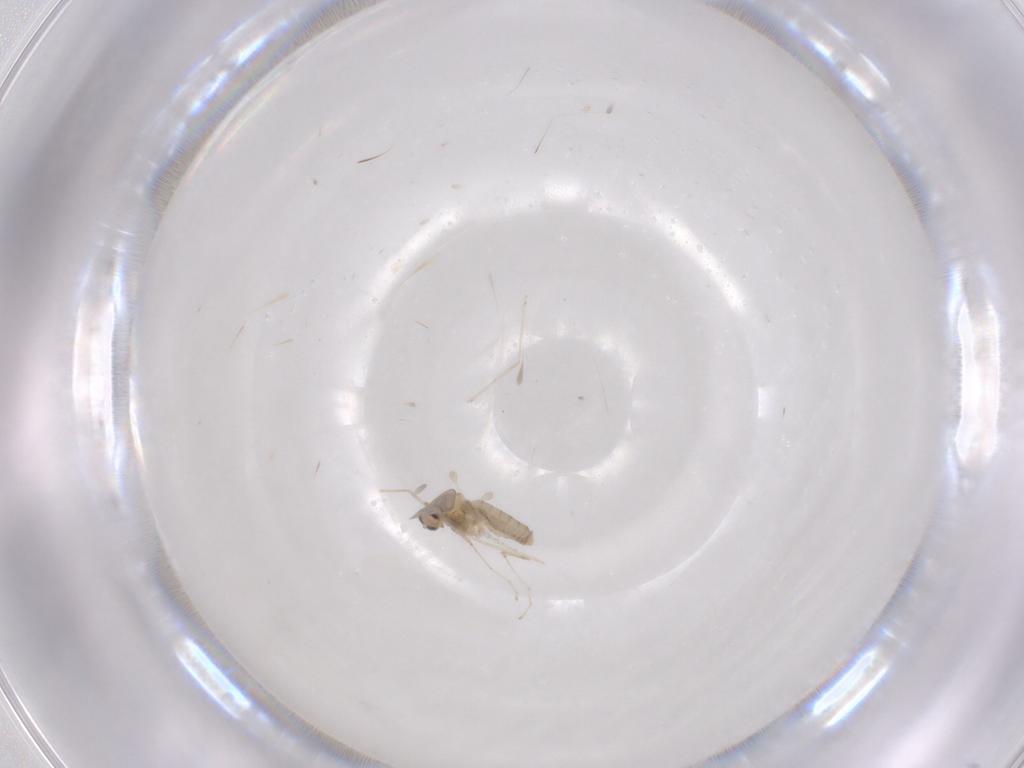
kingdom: Animalia
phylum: Arthropoda
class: Insecta
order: Diptera
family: Cecidomyiidae
